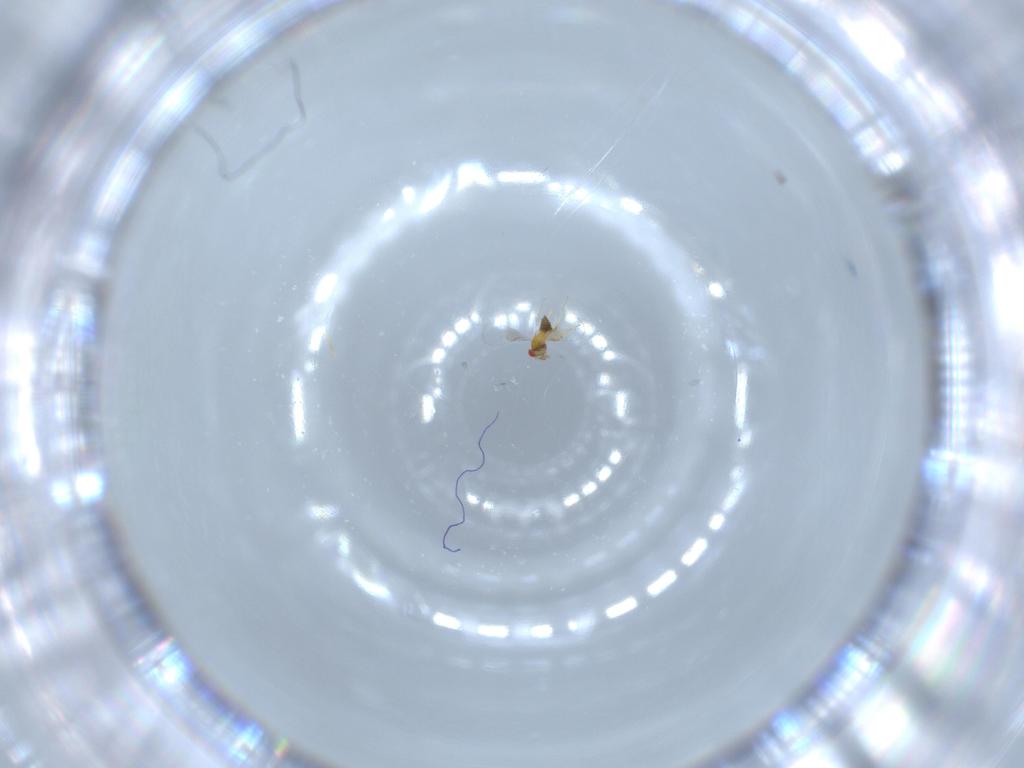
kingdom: Animalia
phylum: Arthropoda
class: Insecta
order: Hymenoptera
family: Trichogrammatidae
